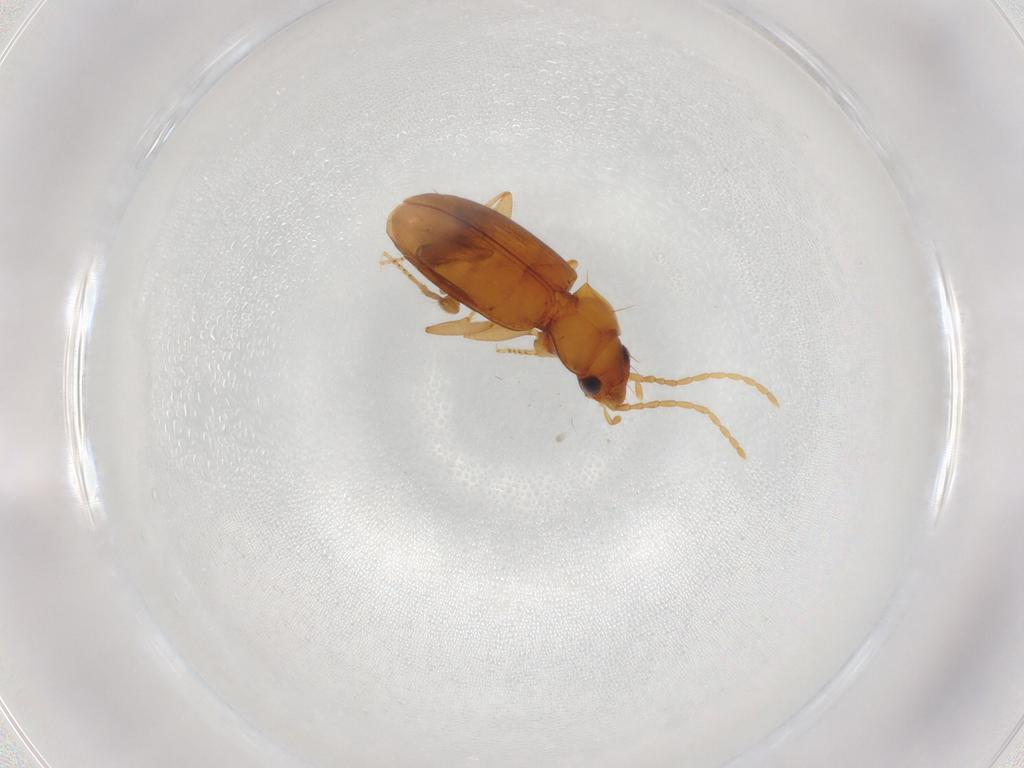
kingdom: Animalia
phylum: Arthropoda
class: Insecta
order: Coleoptera
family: Carabidae
